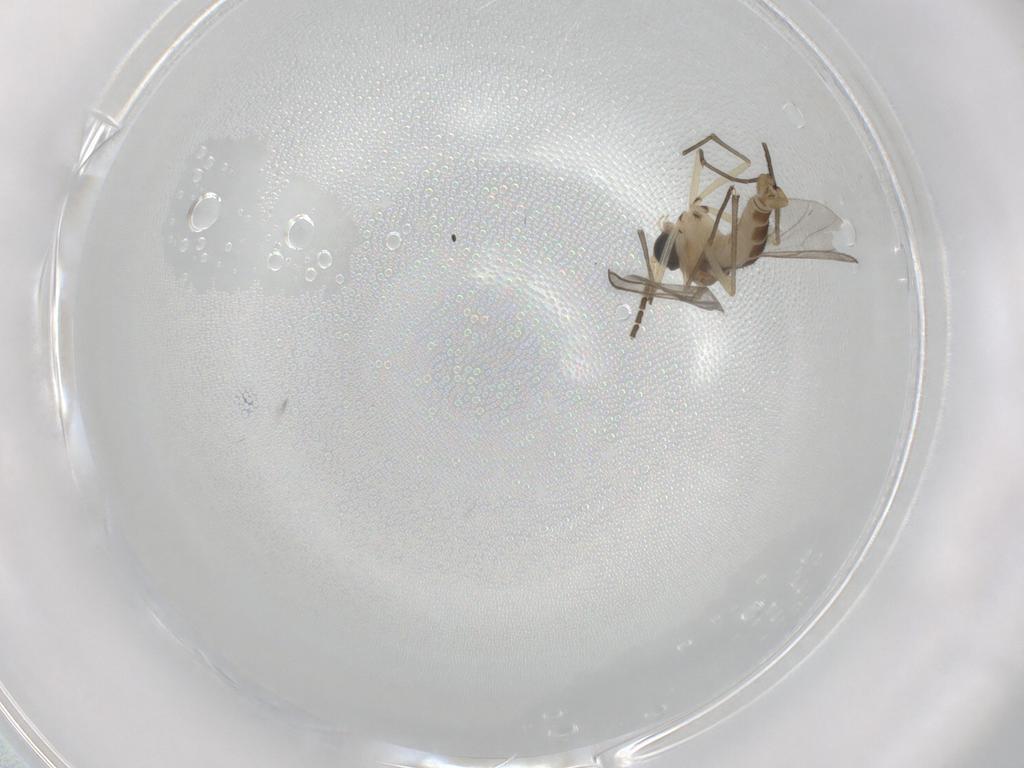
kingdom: Animalia
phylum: Arthropoda
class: Insecta
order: Diptera
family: Sciaridae
